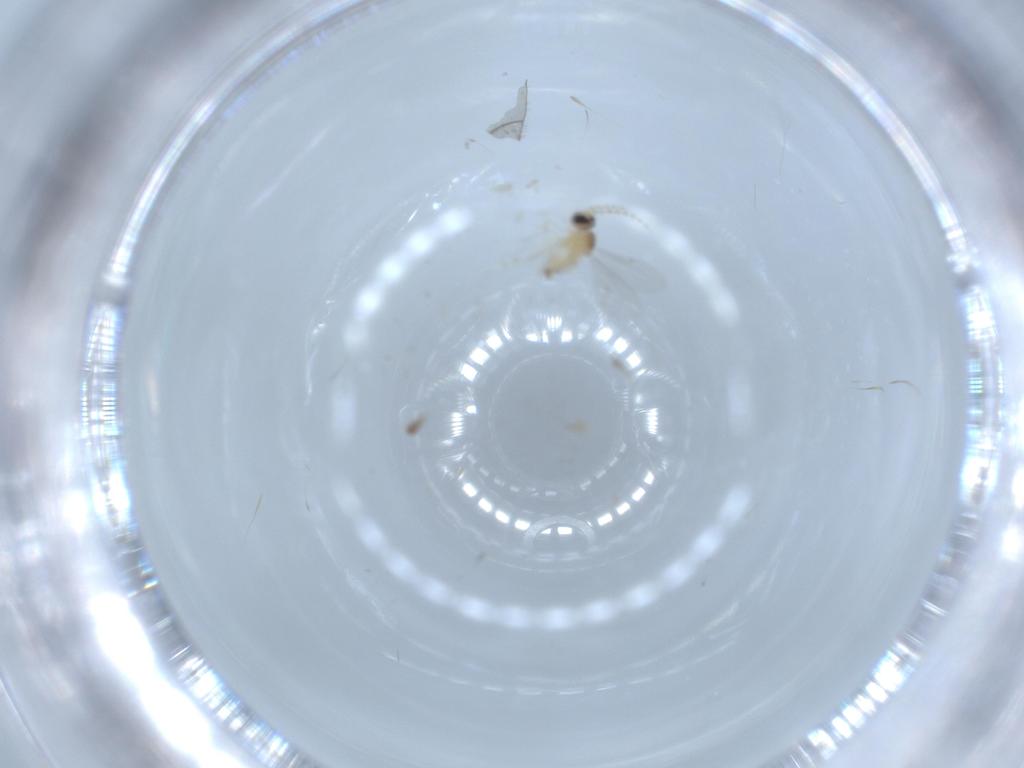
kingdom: Animalia
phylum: Arthropoda
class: Insecta
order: Diptera
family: Cecidomyiidae
